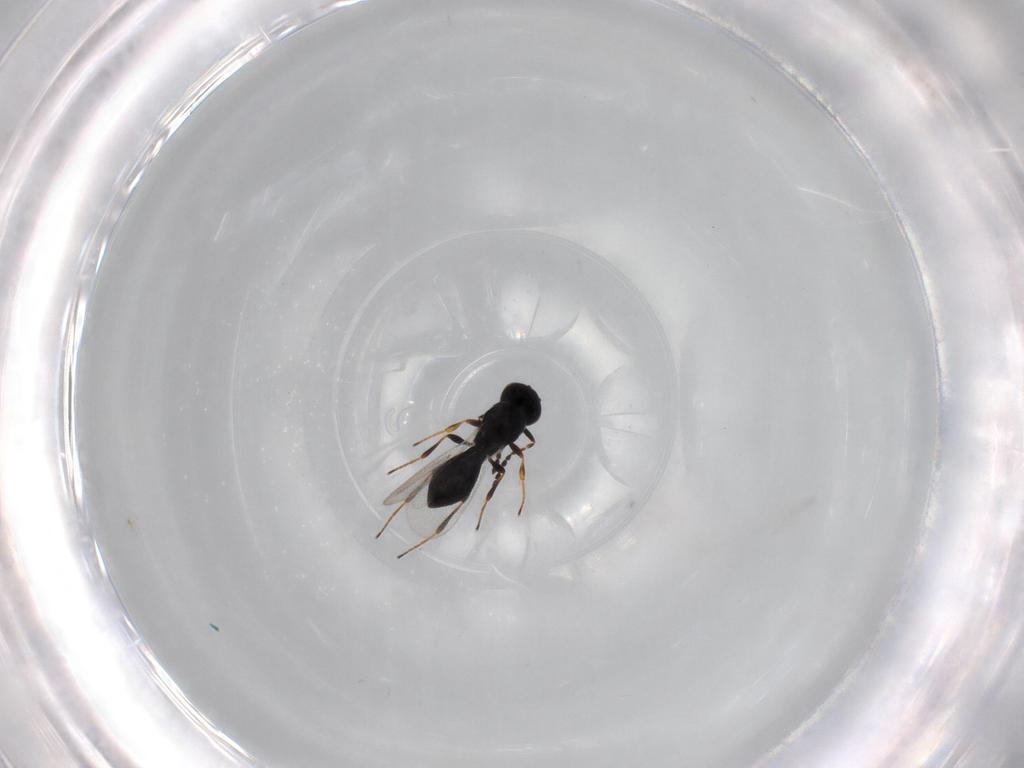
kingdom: Animalia
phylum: Arthropoda
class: Insecta
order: Hymenoptera
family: Platygastridae
